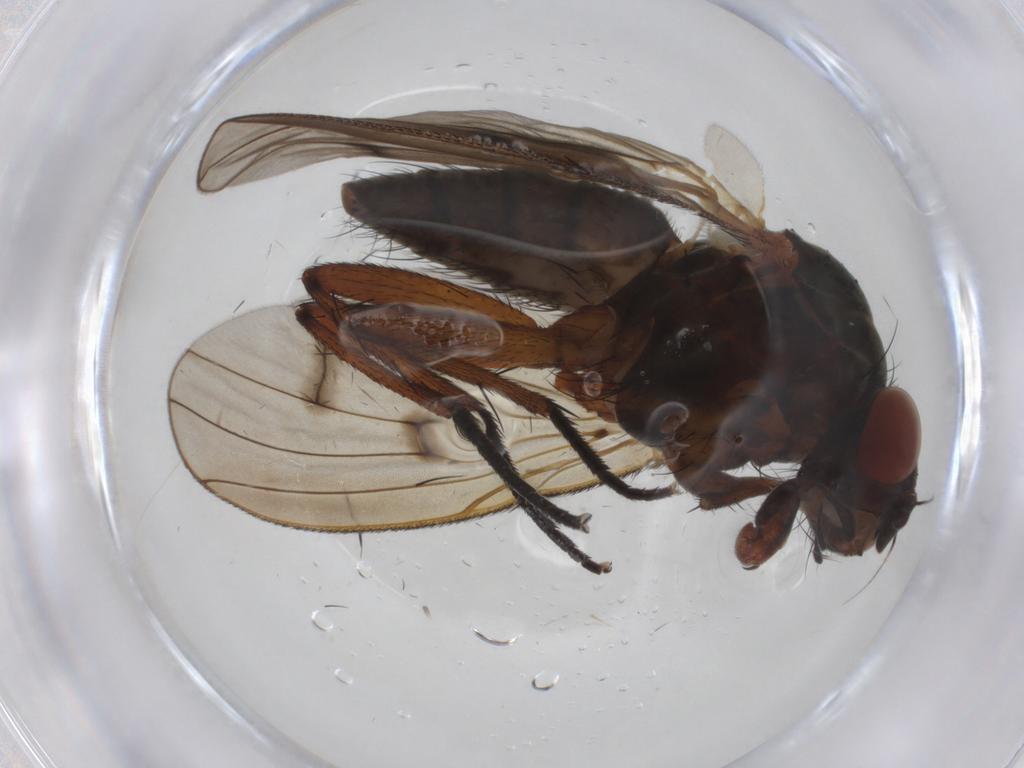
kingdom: Animalia
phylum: Arthropoda
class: Insecta
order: Diptera
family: Anthomyiidae
